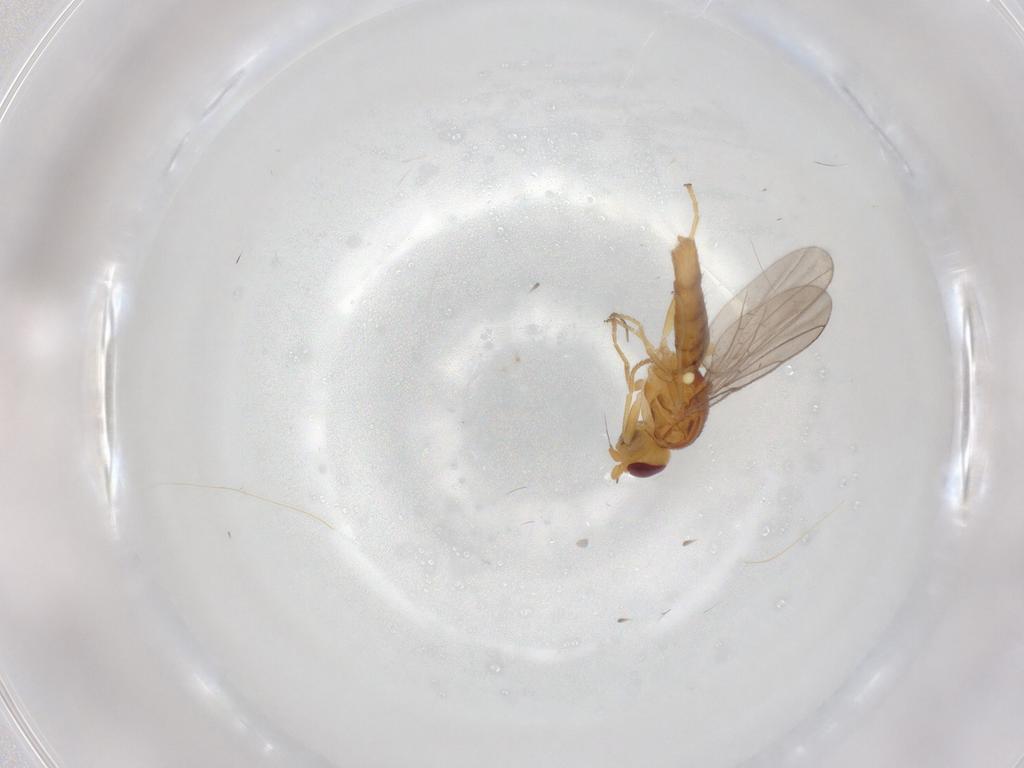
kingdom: Animalia
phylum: Arthropoda
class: Insecta
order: Diptera
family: Chloropidae
